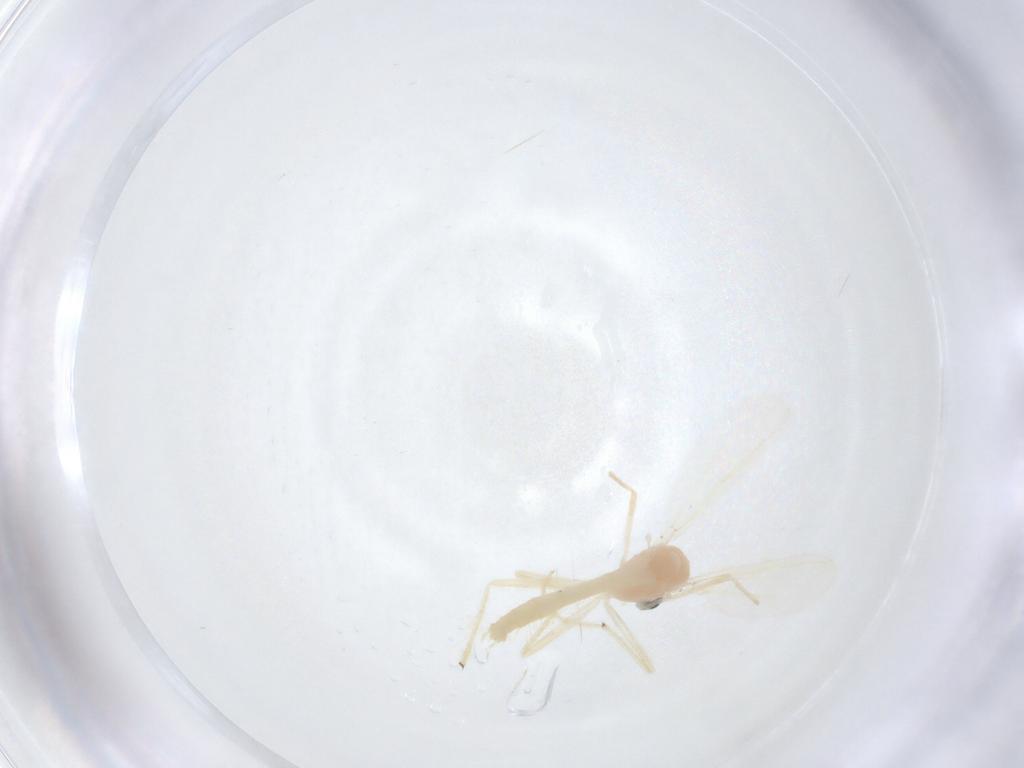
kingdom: Animalia
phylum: Arthropoda
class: Insecta
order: Diptera
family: Chironomidae
